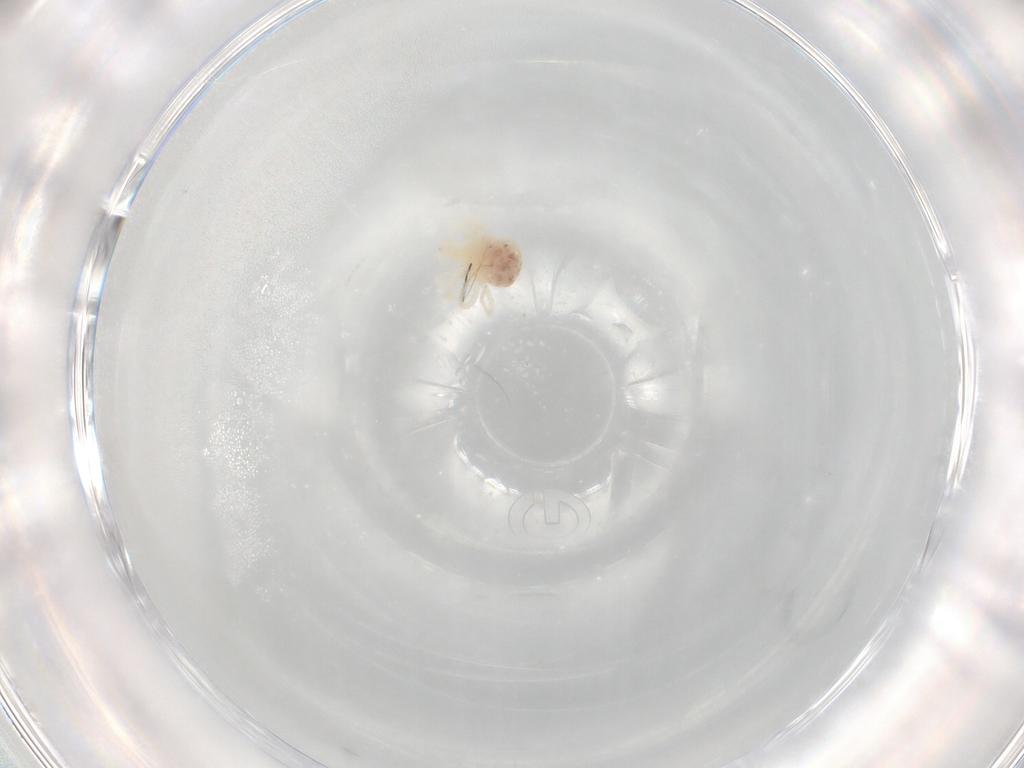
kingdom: Animalia
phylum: Arthropoda
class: Arachnida
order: Trombidiformes
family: Anystidae
